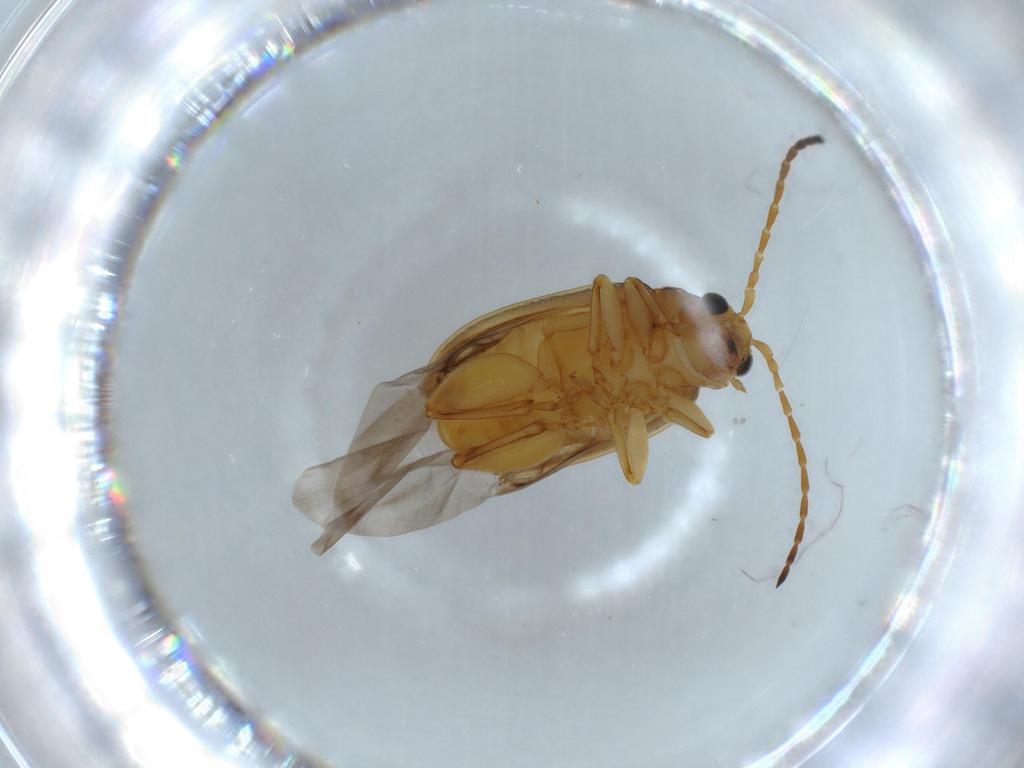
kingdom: Animalia
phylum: Arthropoda
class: Insecta
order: Coleoptera
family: Chrysomelidae
